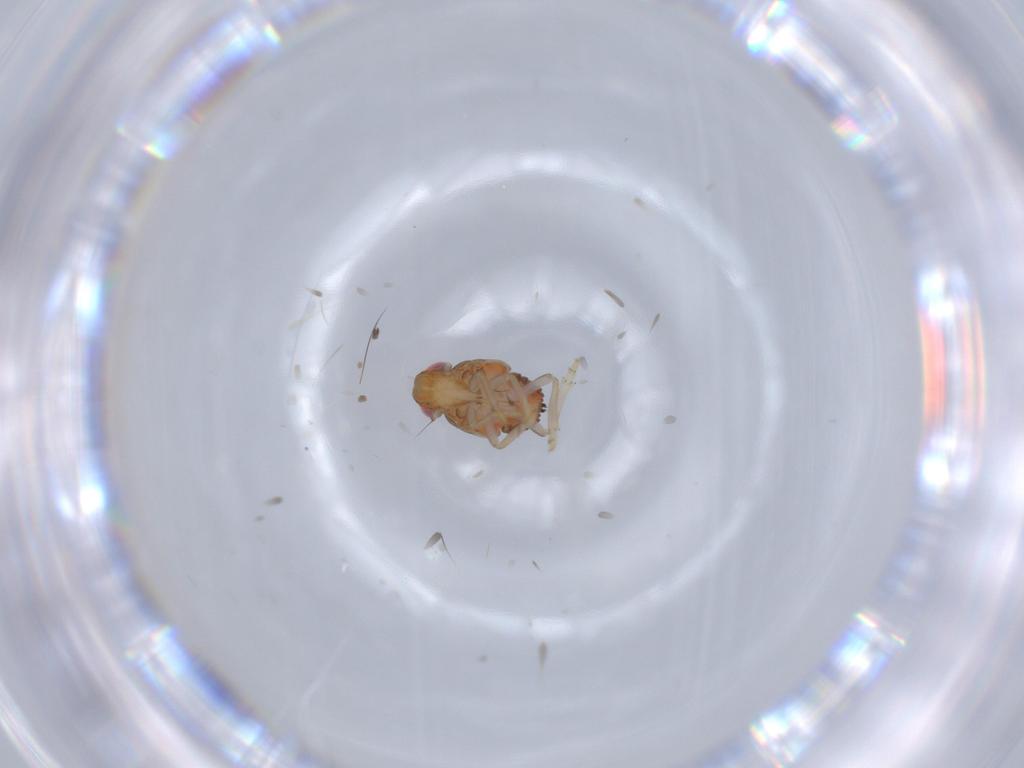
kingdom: Animalia
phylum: Arthropoda
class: Insecta
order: Hemiptera
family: Issidae
